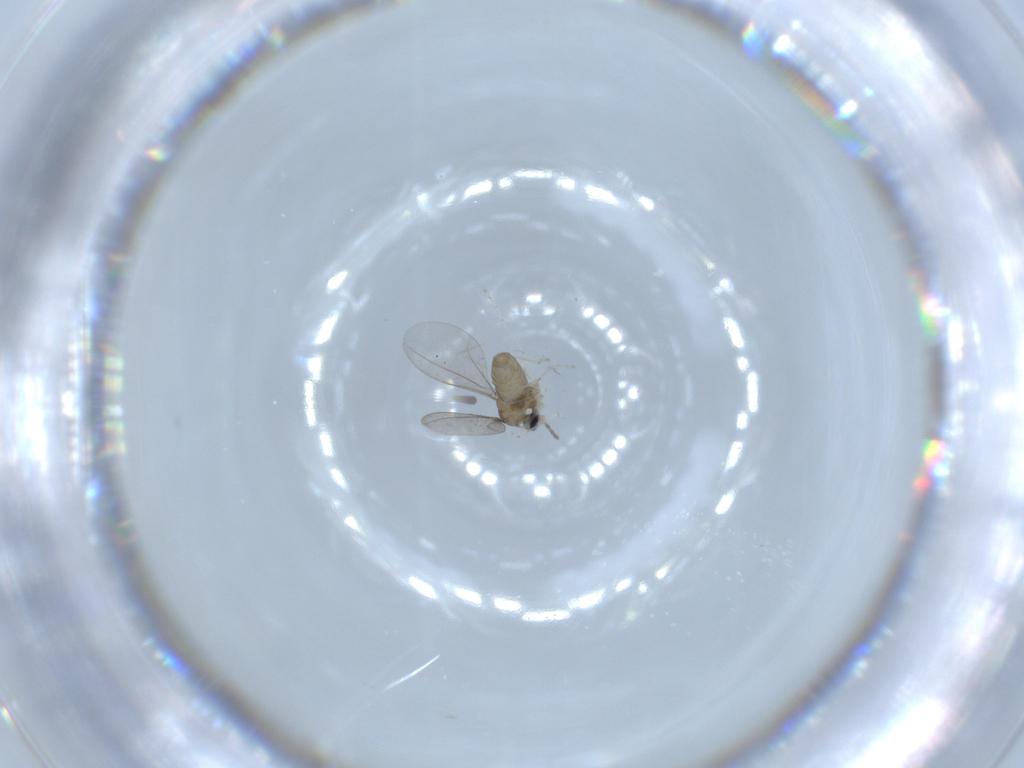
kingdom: Animalia
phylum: Arthropoda
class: Insecta
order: Diptera
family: Cecidomyiidae
